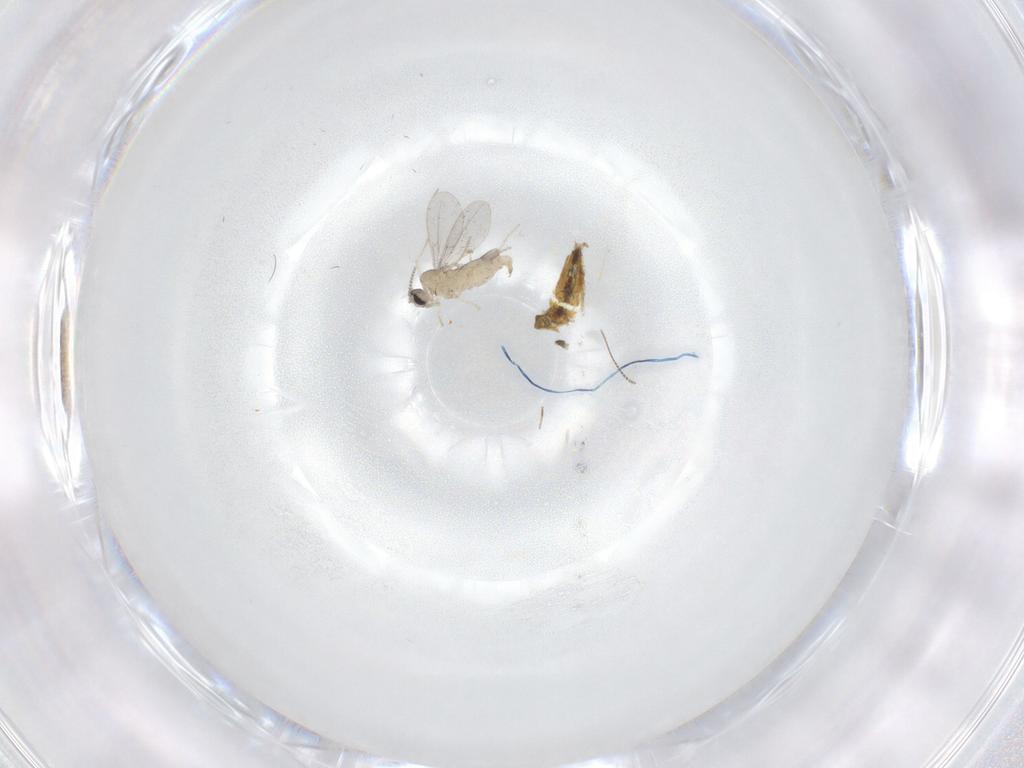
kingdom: Animalia
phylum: Arthropoda
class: Insecta
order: Diptera
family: Cecidomyiidae
